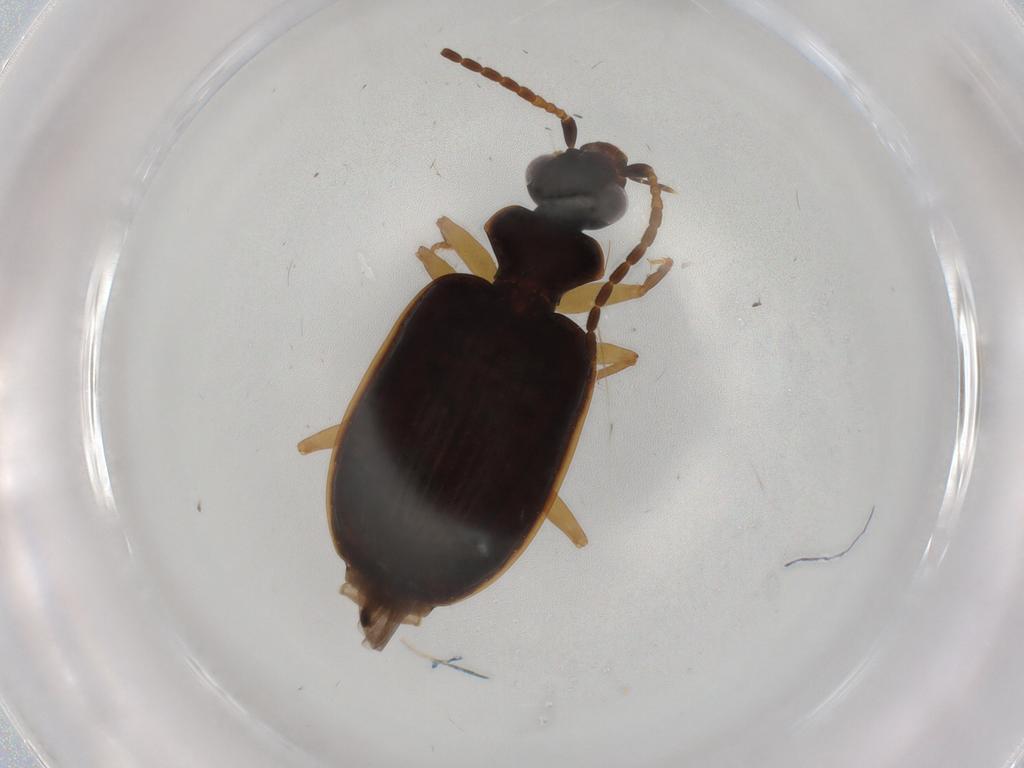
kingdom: Animalia
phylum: Arthropoda
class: Insecta
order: Coleoptera
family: Carabidae
